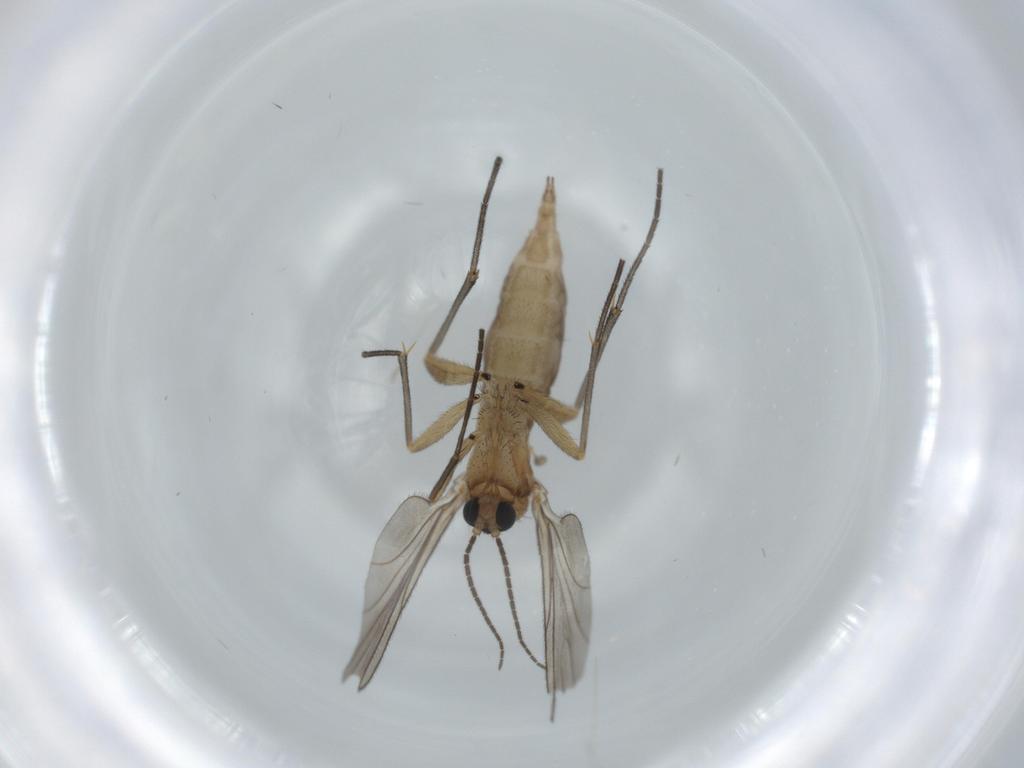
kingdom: Animalia
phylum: Arthropoda
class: Insecta
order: Diptera
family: Sciaridae
